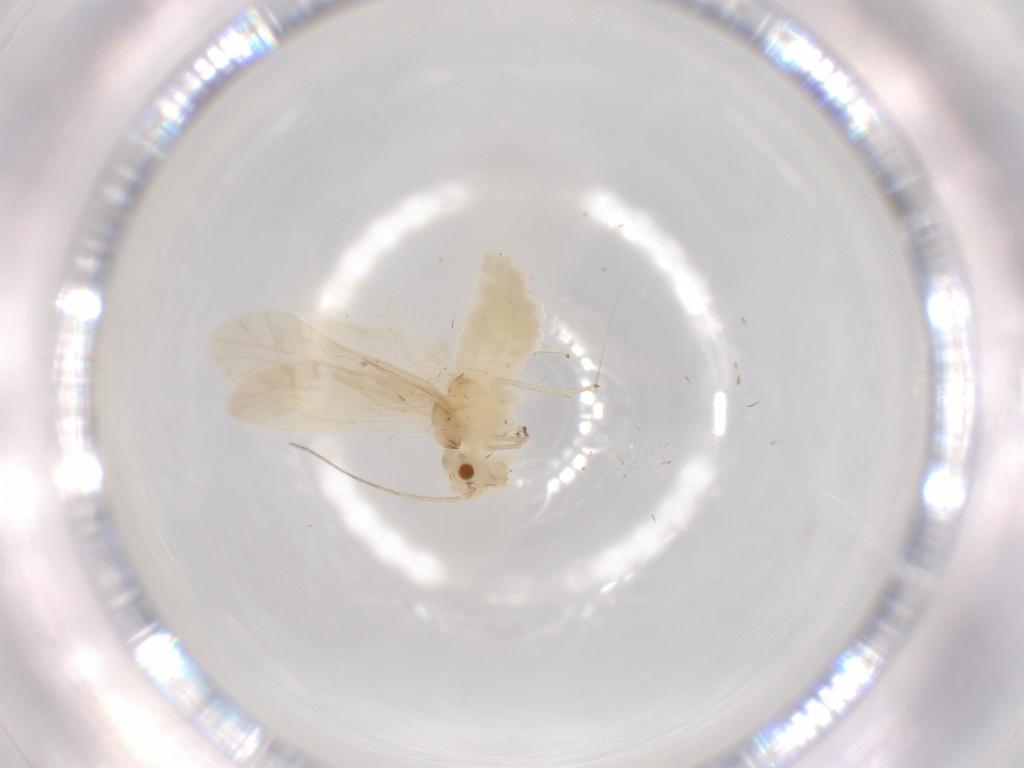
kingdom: Animalia
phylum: Arthropoda
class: Insecta
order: Psocodea
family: Caeciliusidae
